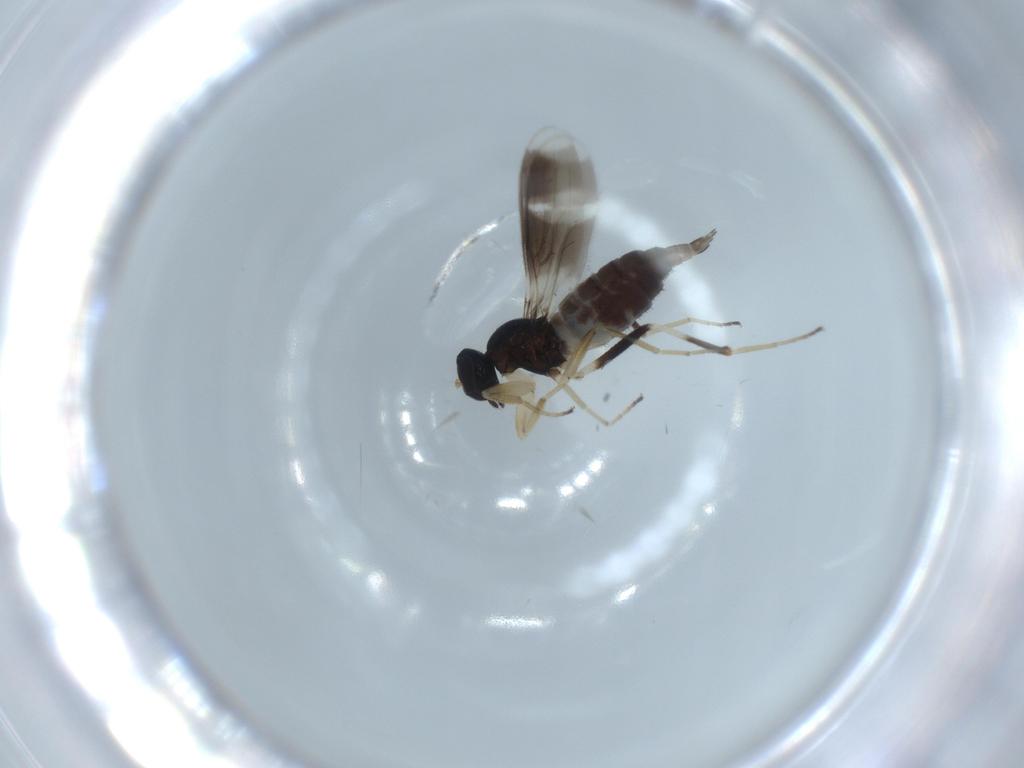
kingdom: Animalia
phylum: Arthropoda
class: Insecta
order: Diptera
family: Hybotidae
